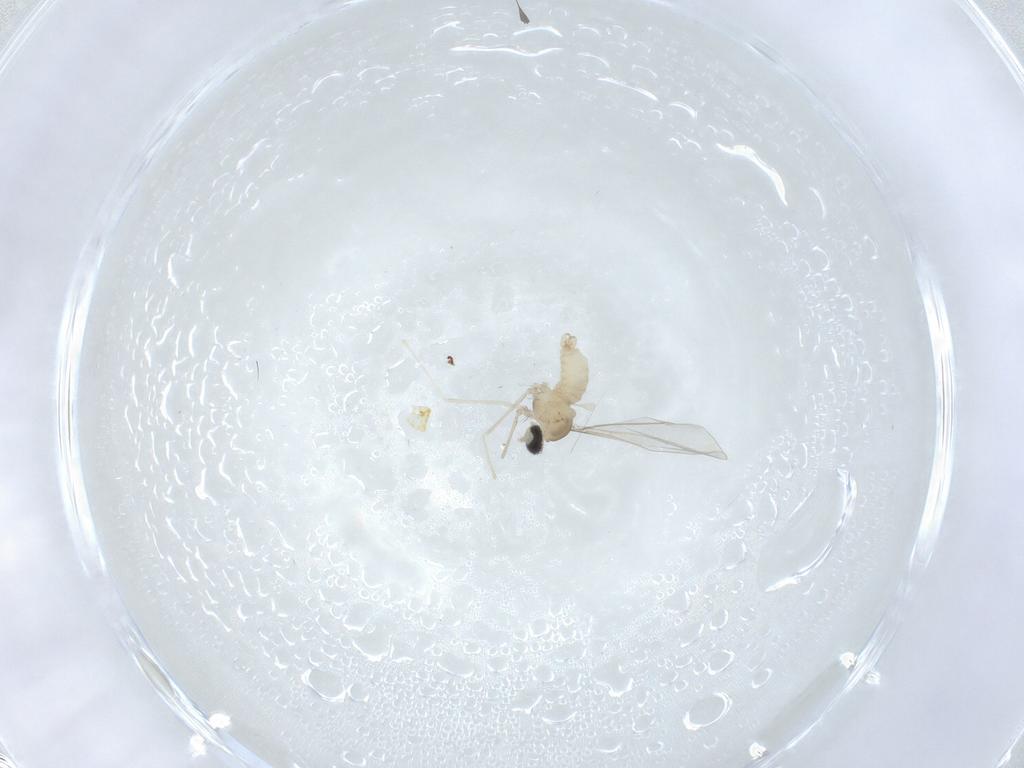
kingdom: Animalia
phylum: Arthropoda
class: Insecta
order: Diptera
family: Cecidomyiidae
